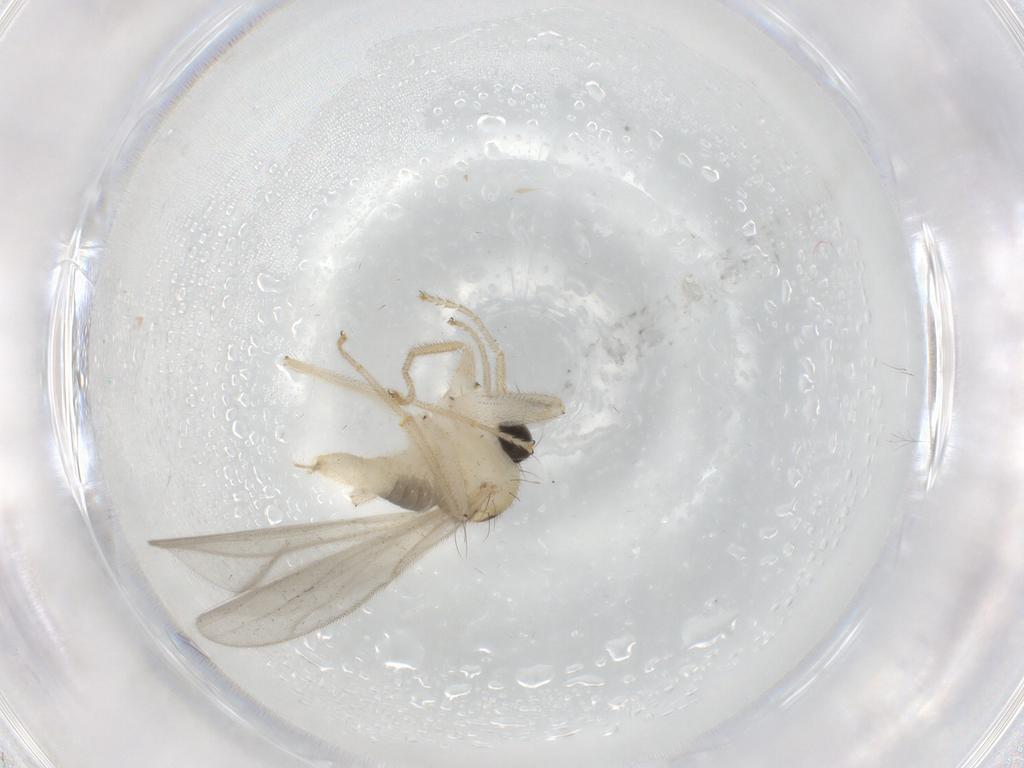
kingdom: Animalia
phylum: Arthropoda
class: Insecta
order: Diptera
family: Hybotidae
